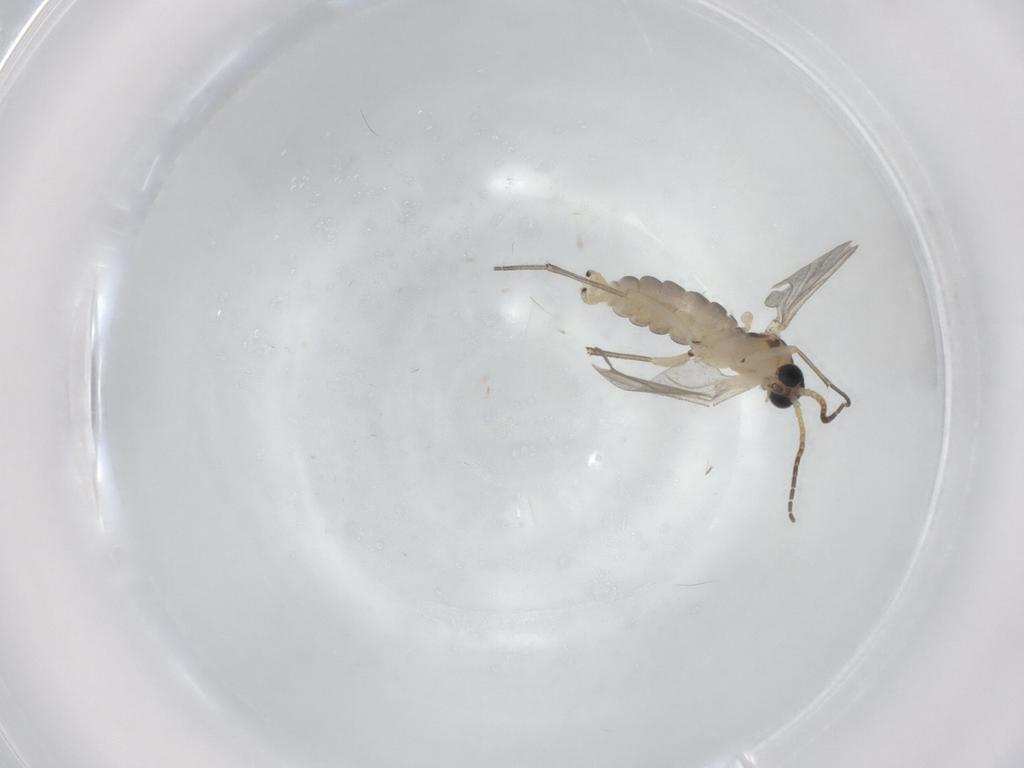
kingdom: Animalia
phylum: Arthropoda
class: Insecta
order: Diptera
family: Sciaridae
